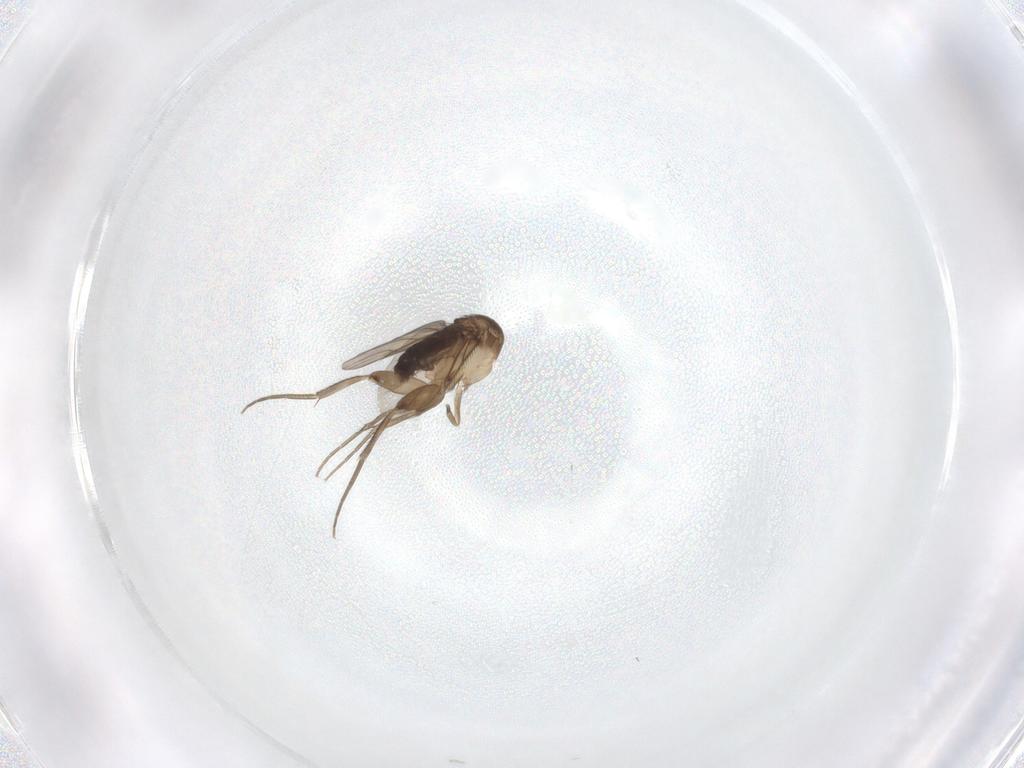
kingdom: Animalia
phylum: Arthropoda
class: Insecta
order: Diptera
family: Phoridae
